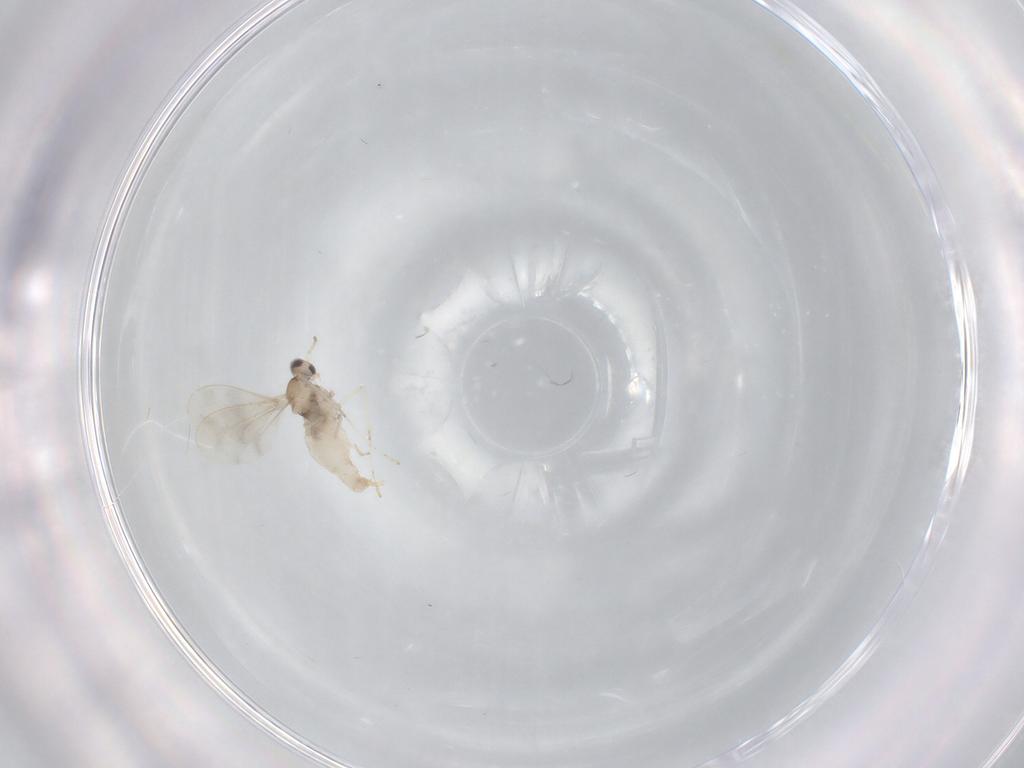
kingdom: Animalia
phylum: Arthropoda
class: Insecta
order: Diptera
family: Cecidomyiidae
